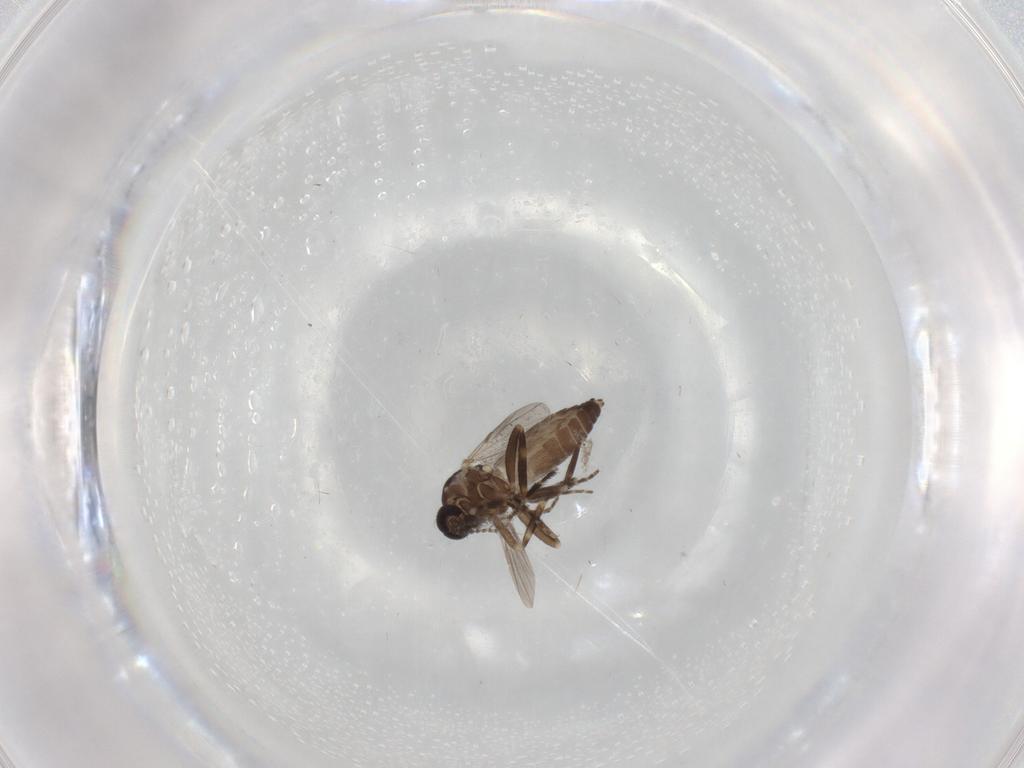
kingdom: Animalia
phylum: Arthropoda
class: Insecta
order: Diptera
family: Ceratopogonidae
